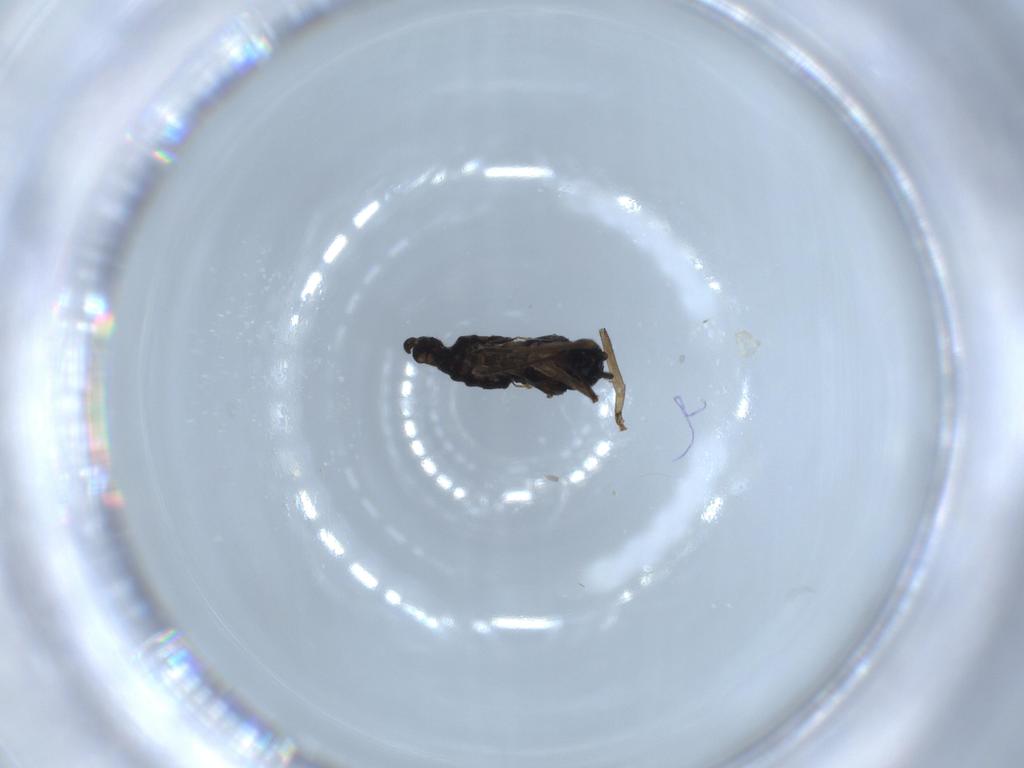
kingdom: Animalia
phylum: Arthropoda
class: Insecta
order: Diptera
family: Sciaridae
